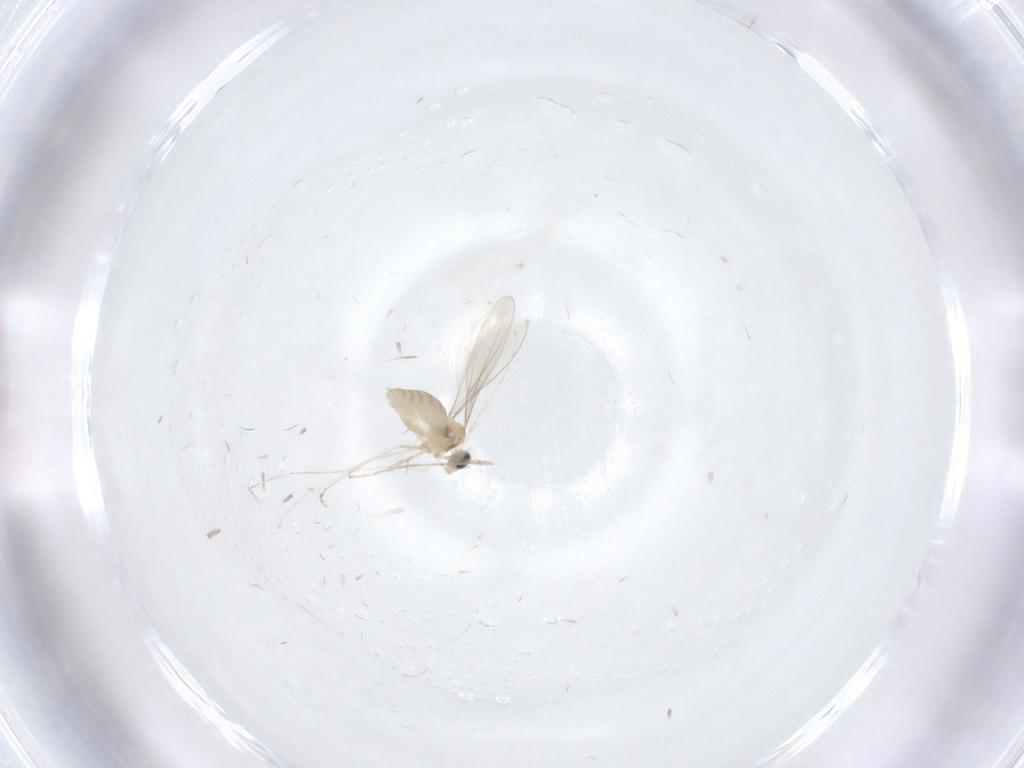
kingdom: Animalia
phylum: Arthropoda
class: Insecta
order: Diptera
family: Cecidomyiidae
